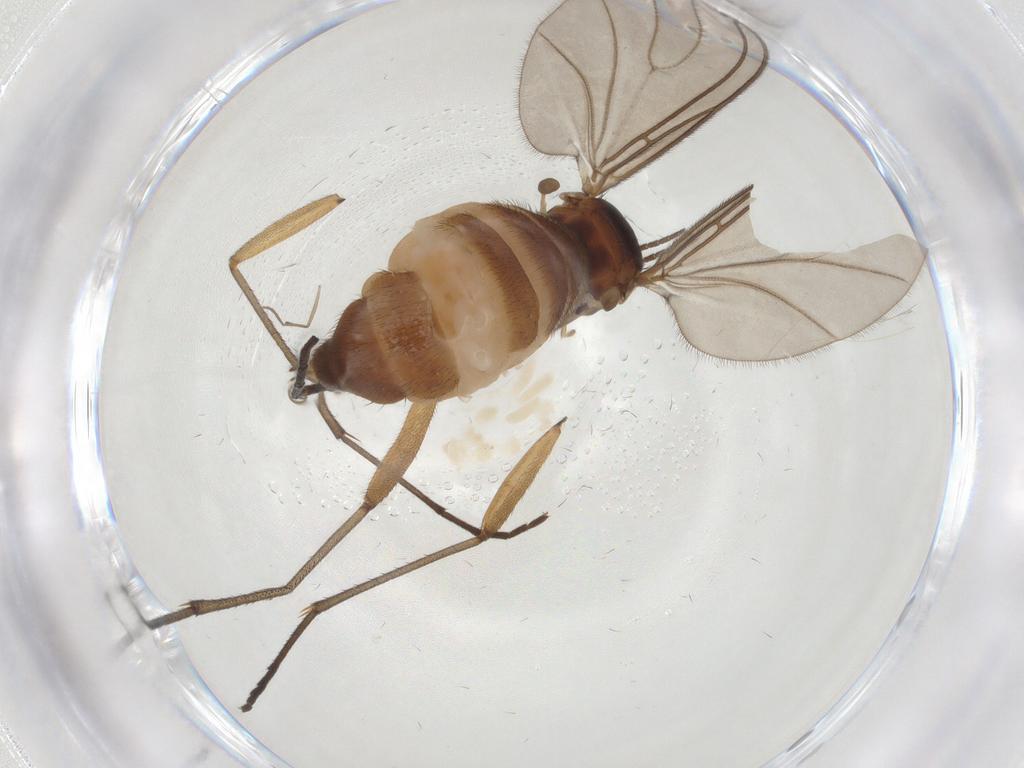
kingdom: Animalia
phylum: Arthropoda
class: Insecta
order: Diptera
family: Sciaridae
